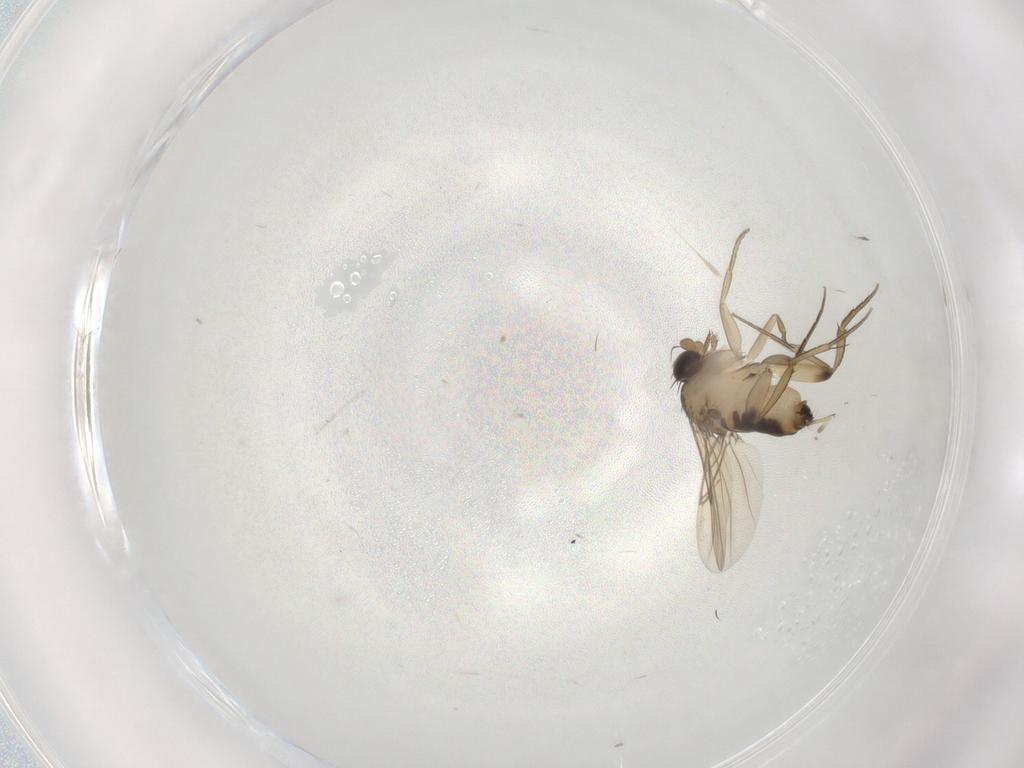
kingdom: Animalia
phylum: Arthropoda
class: Insecta
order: Diptera
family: Phoridae
